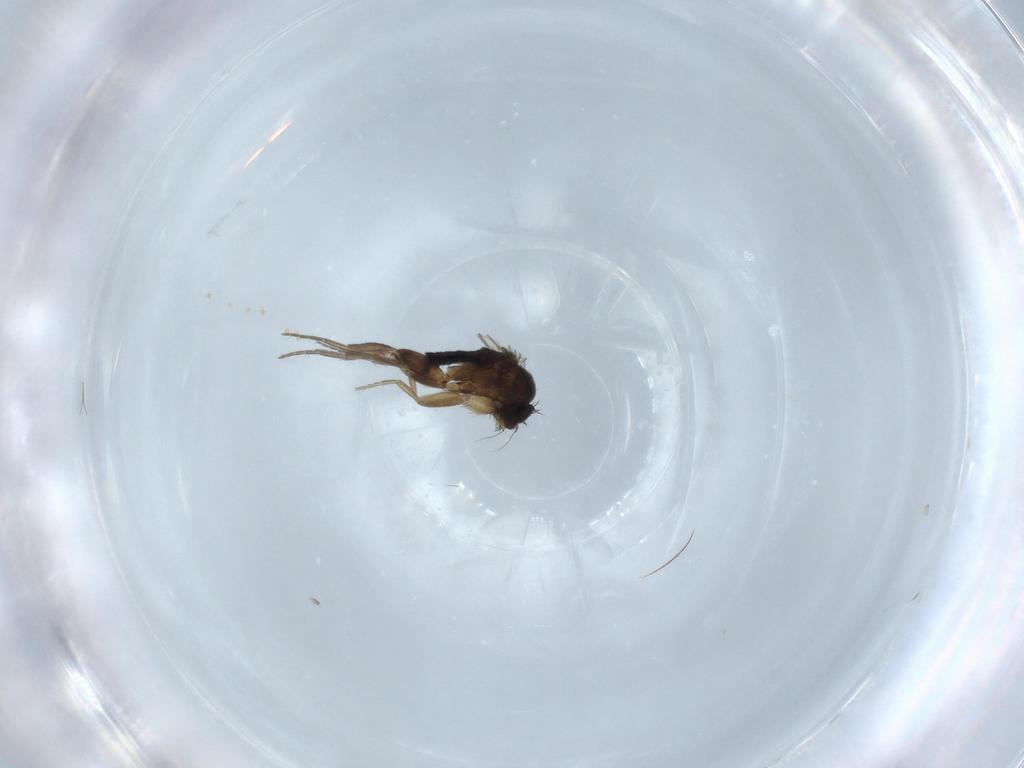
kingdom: Animalia
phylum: Arthropoda
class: Insecta
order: Diptera
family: Phoridae
